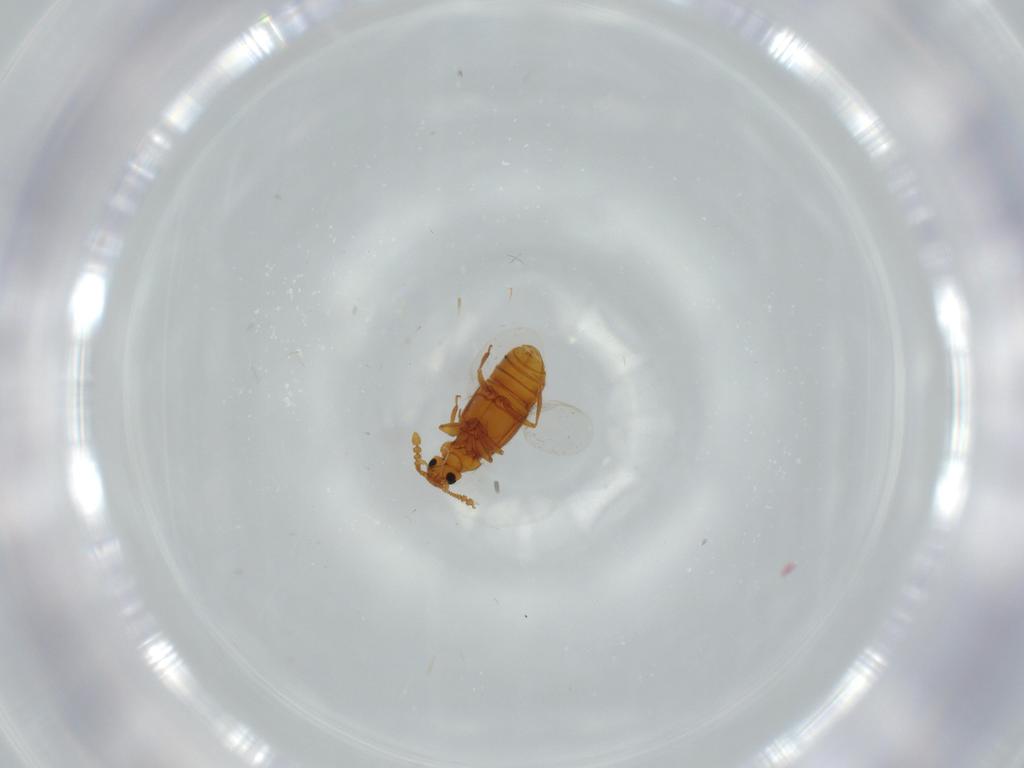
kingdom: Animalia
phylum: Arthropoda
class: Insecta
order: Coleoptera
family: Staphylinidae
